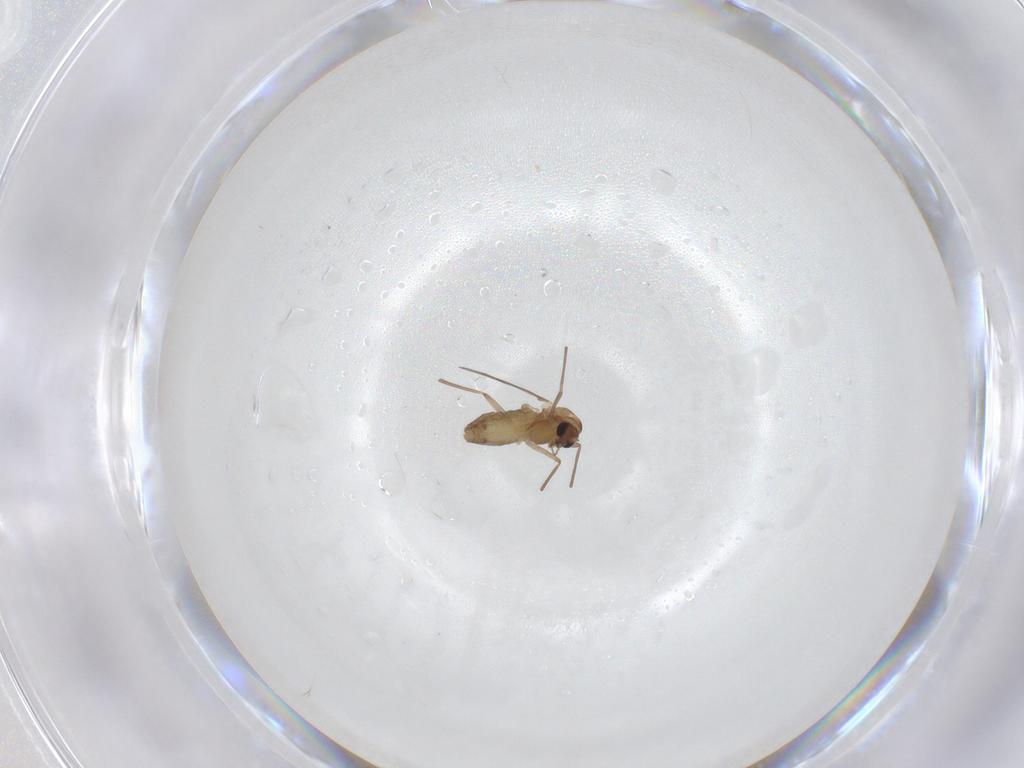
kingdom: Animalia
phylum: Arthropoda
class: Insecta
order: Diptera
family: Chironomidae
